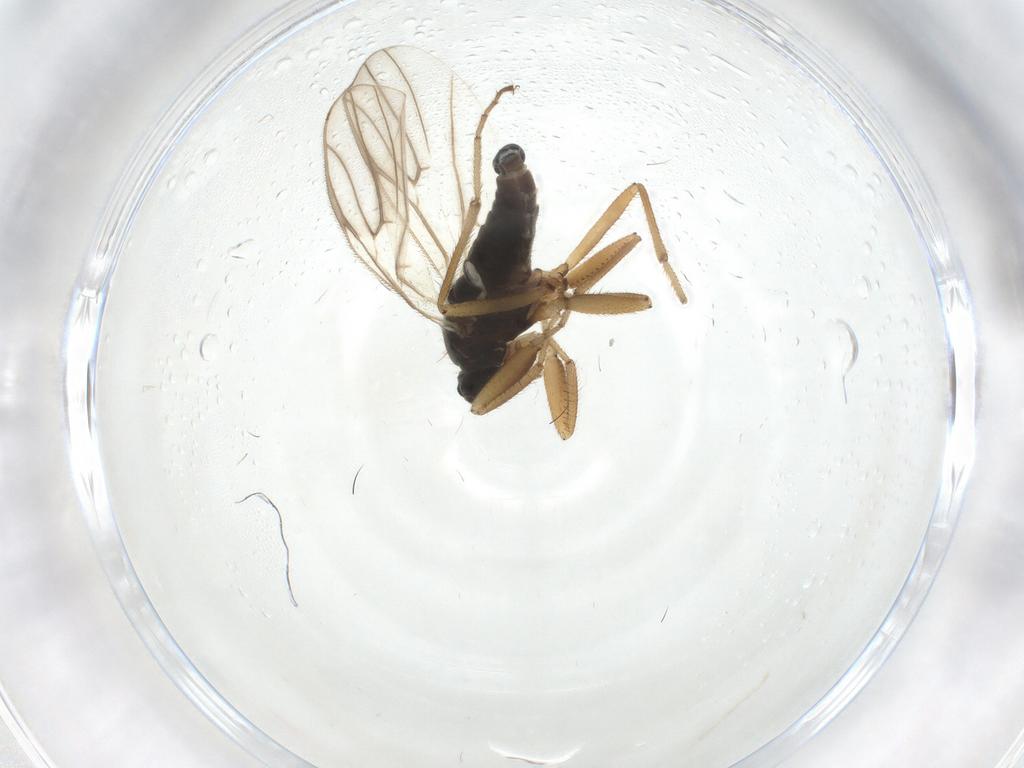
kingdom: Animalia
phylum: Arthropoda
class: Insecta
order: Diptera
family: Hybotidae
